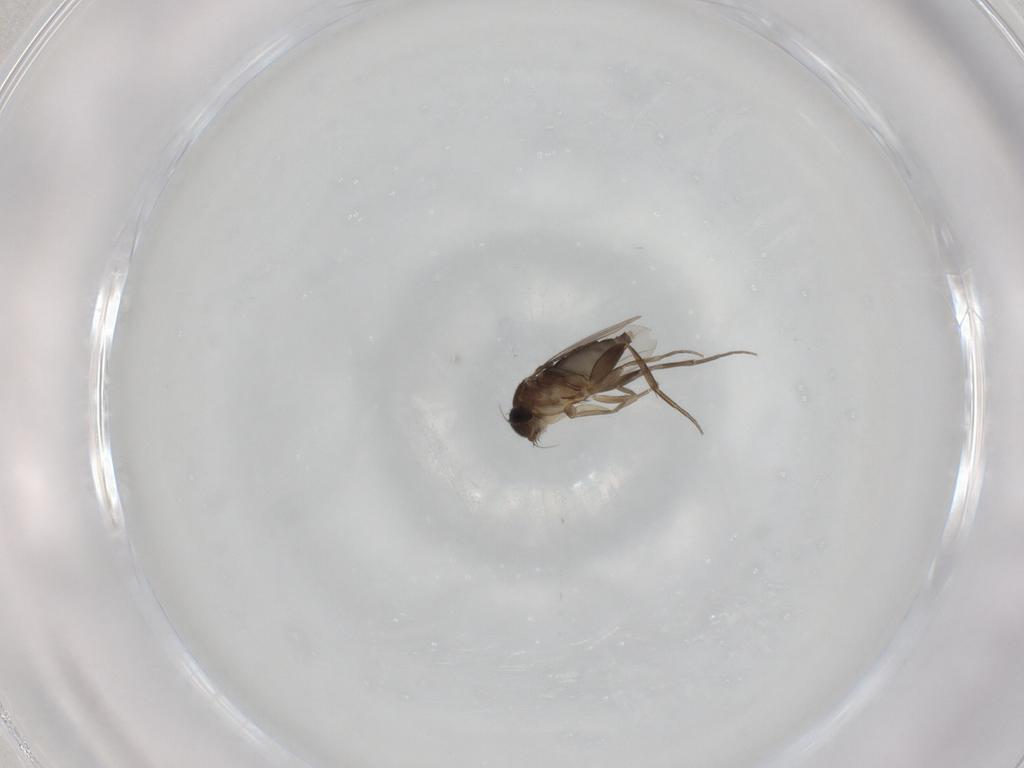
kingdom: Animalia
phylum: Arthropoda
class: Insecta
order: Diptera
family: Phoridae
